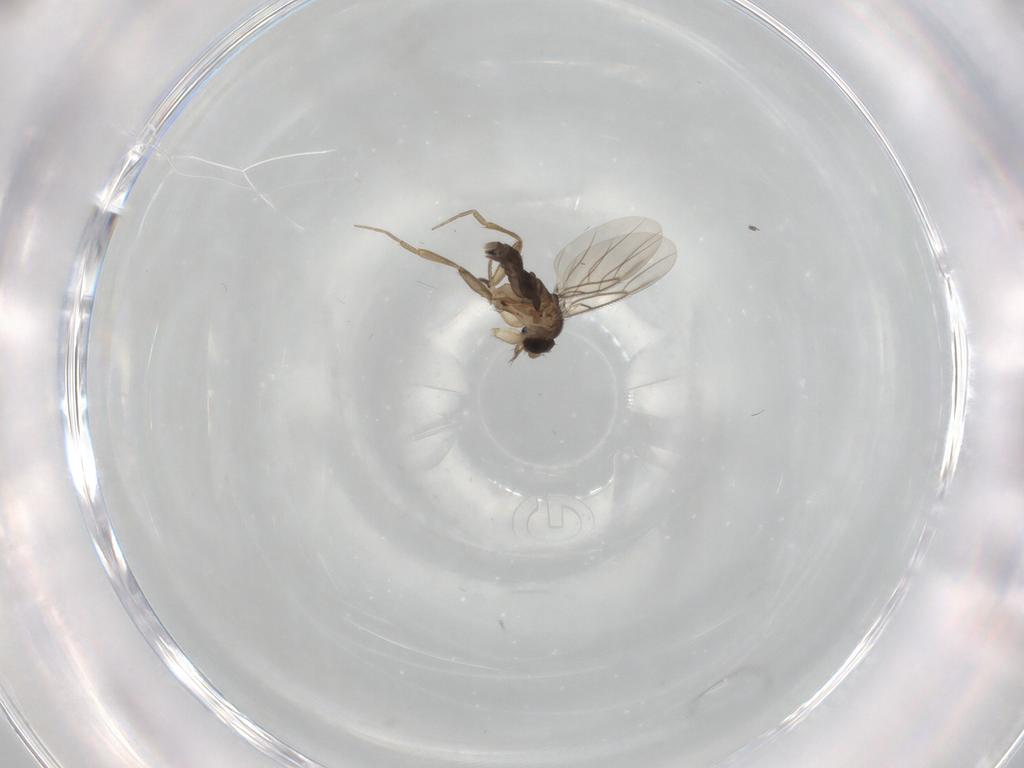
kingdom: Animalia
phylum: Arthropoda
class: Insecta
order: Diptera
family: Phoridae
